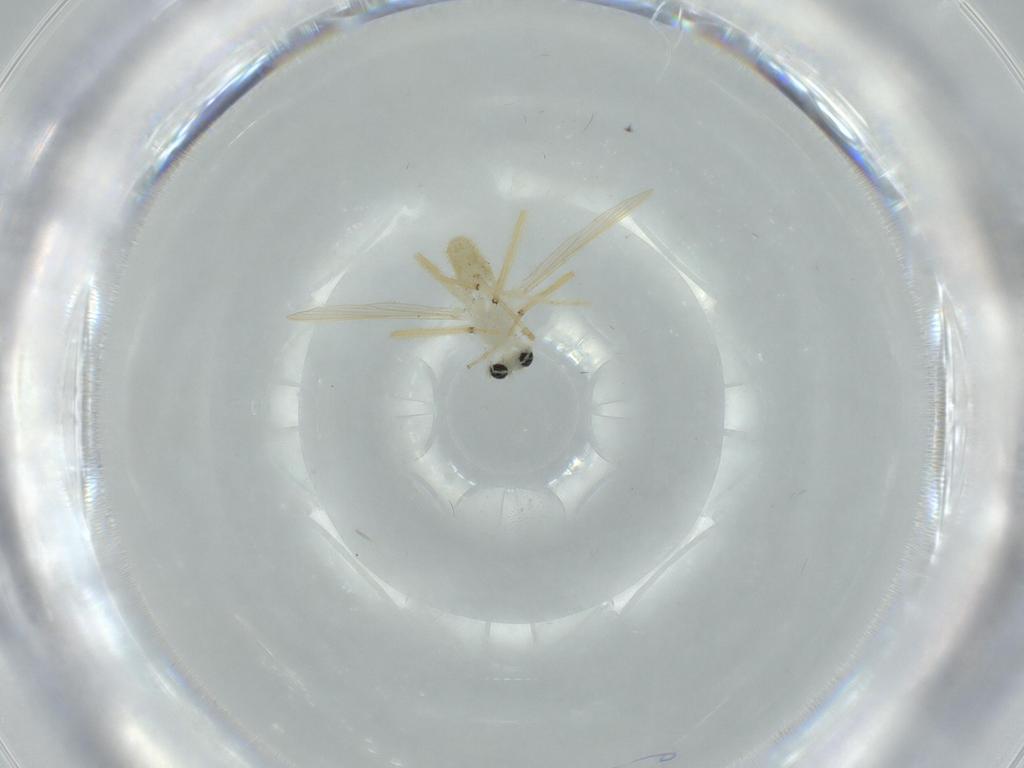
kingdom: Animalia
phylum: Arthropoda
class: Insecta
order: Diptera
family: Chironomidae
